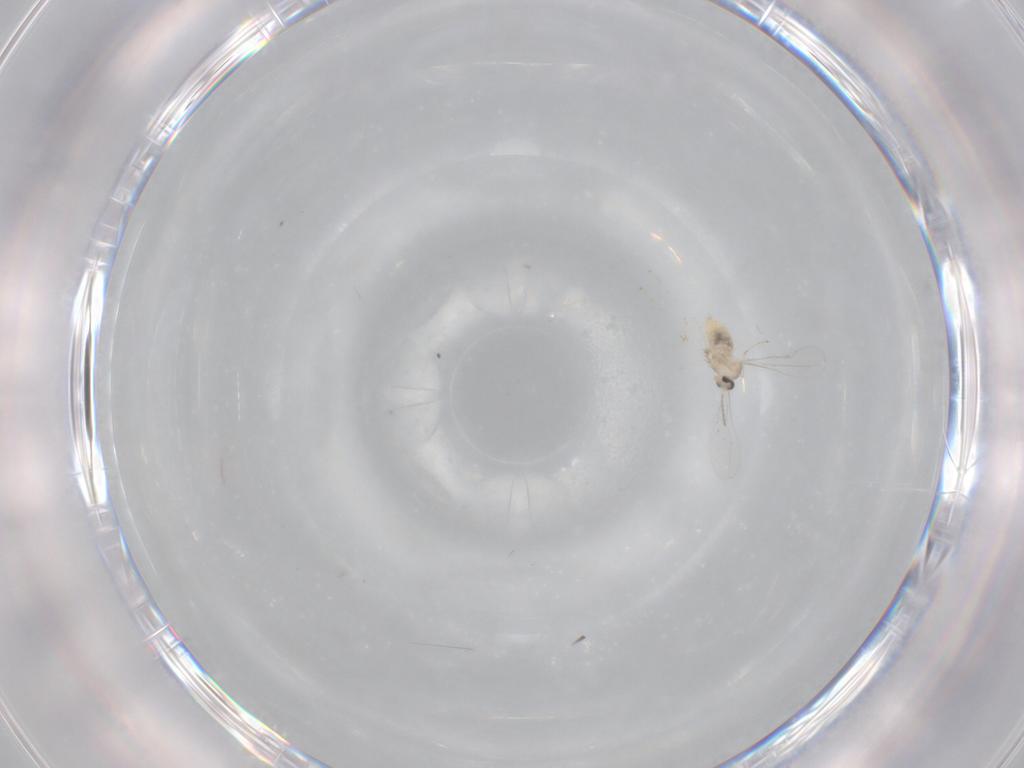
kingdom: Animalia
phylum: Arthropoda
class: Insecta
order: Diptera
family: Cecidomyiidae
